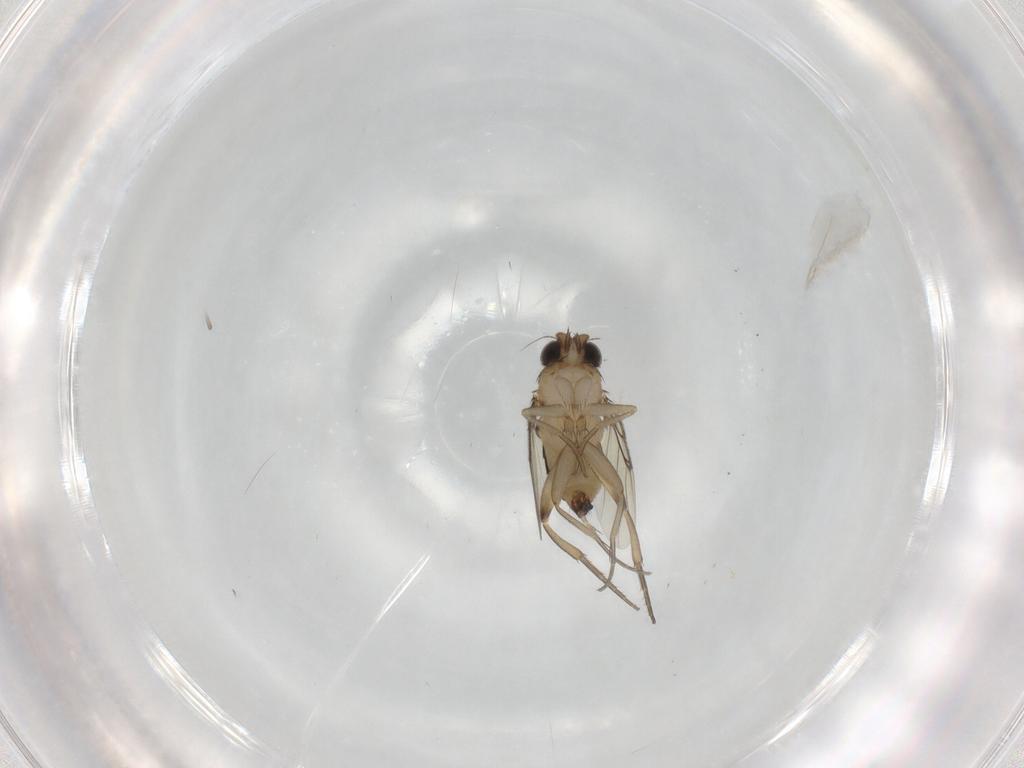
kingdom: Animalia
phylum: Arthropoda
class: Insecta
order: Diptera
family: Phoridae
